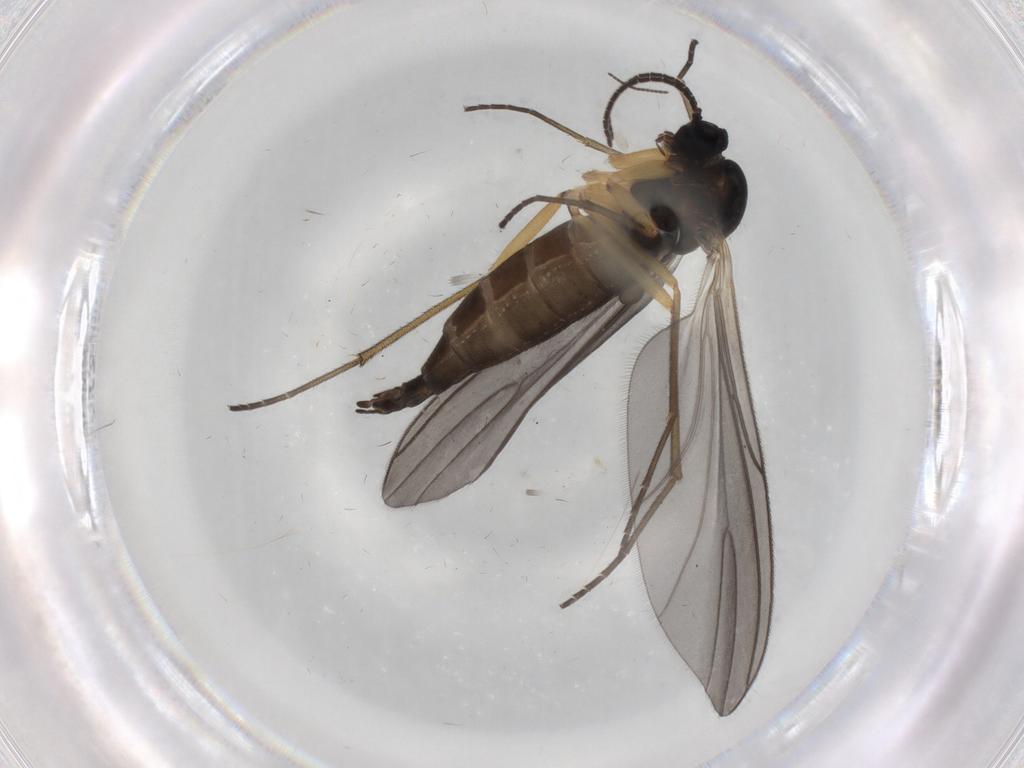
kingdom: Animalia
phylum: Arthropoda
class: Insecta
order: Diptera
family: Sciaridae
